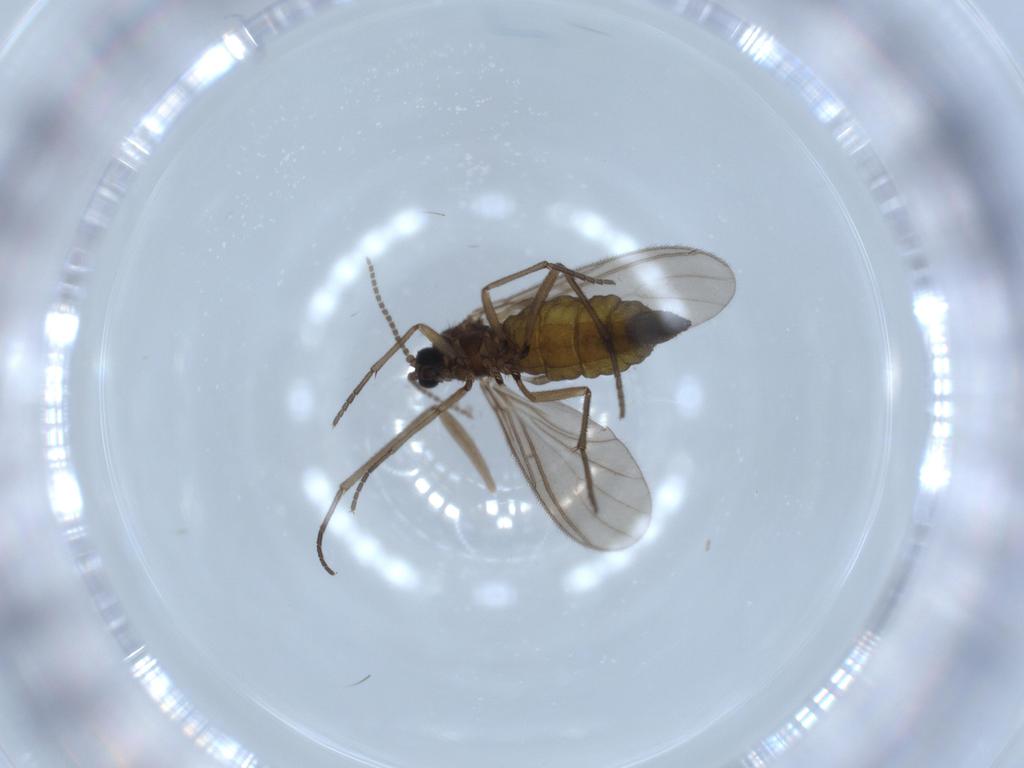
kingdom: Animalia
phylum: Arthropoda
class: Insecta
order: Diptera
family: Sciaridae
